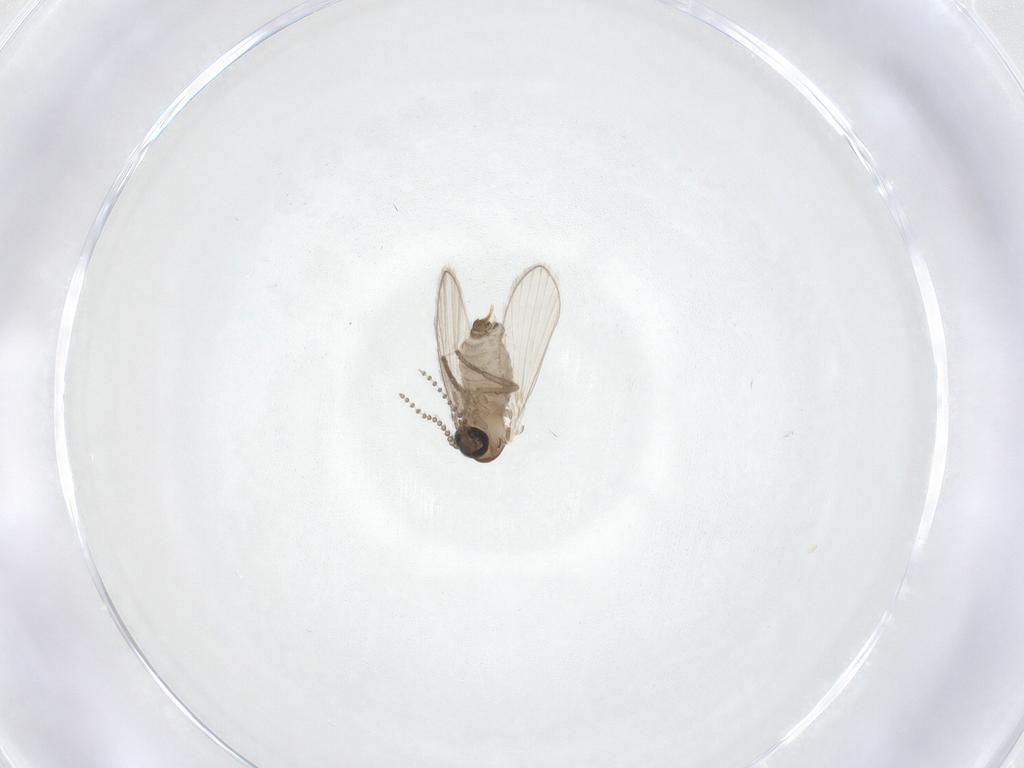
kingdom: Animalia
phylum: Arthropoda
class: Insecta
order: Diptera
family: Psychodidae
